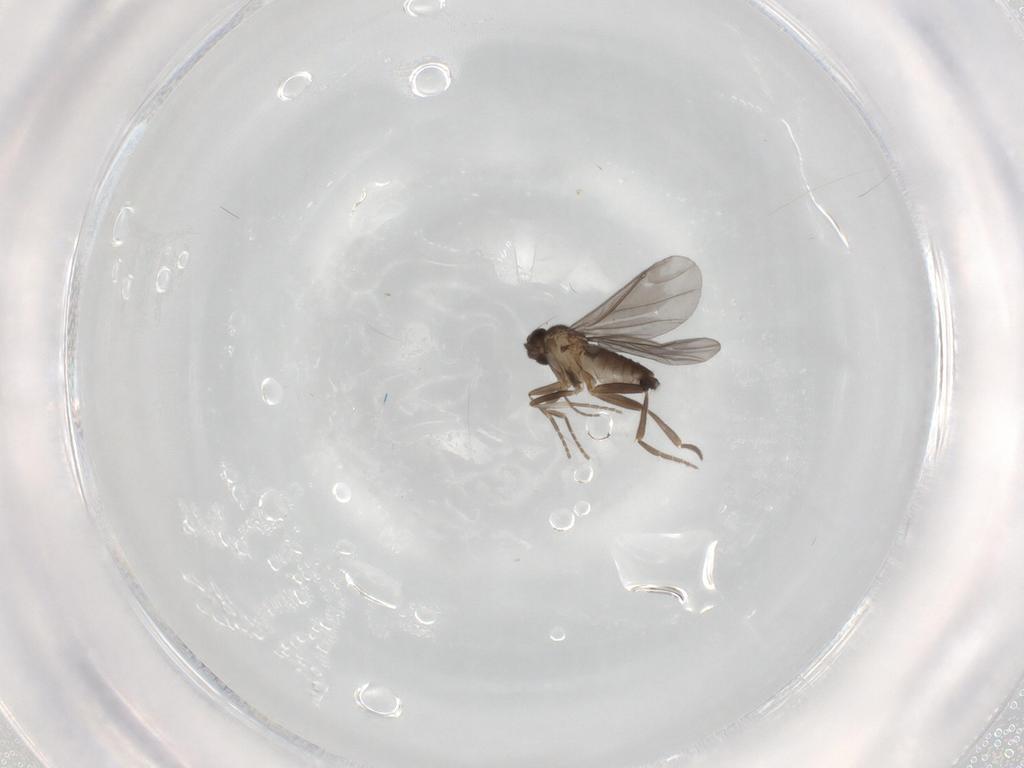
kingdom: Animalia
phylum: Arthropoda
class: Insecta
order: Diptera
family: Phoridae
